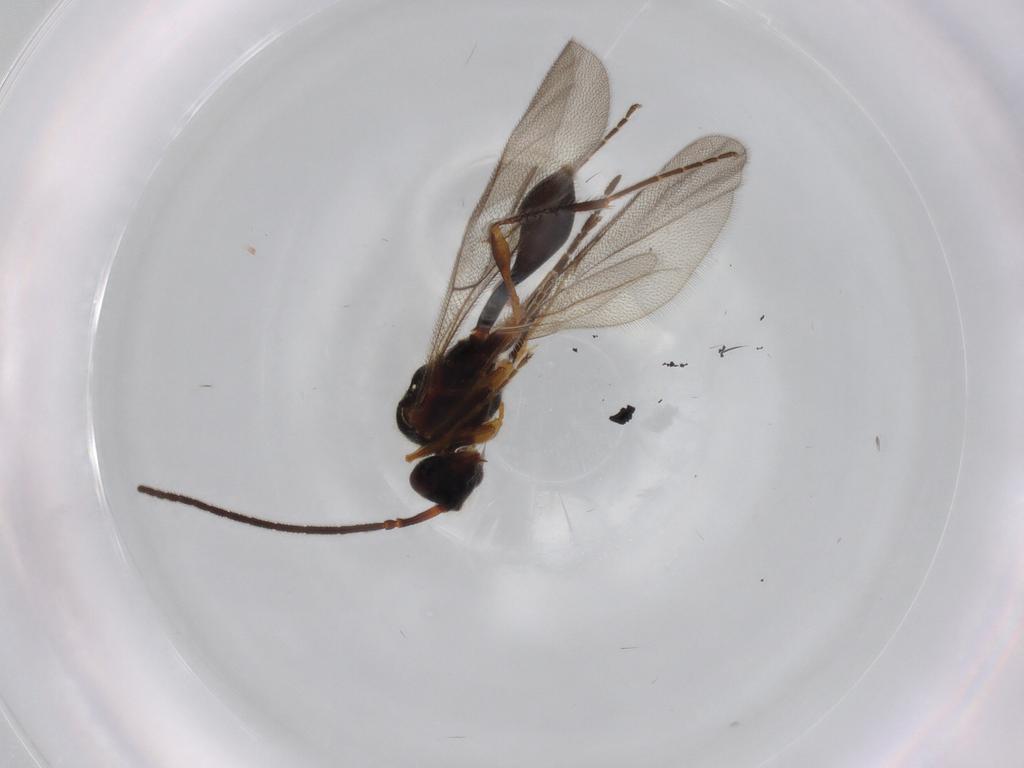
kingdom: Animalia
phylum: Arthropoda
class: Insecta
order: Hymenoptera
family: Diapriidae
